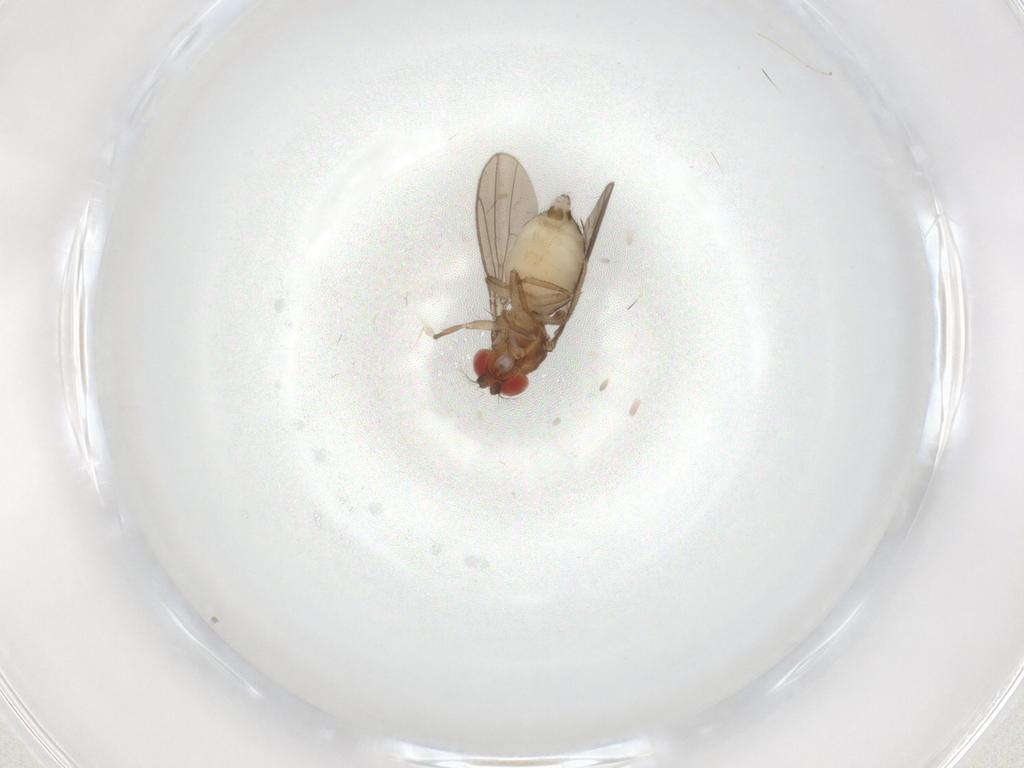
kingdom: Animalia
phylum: Arthropoda
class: Insecta
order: Diptera
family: Drosophilidae
